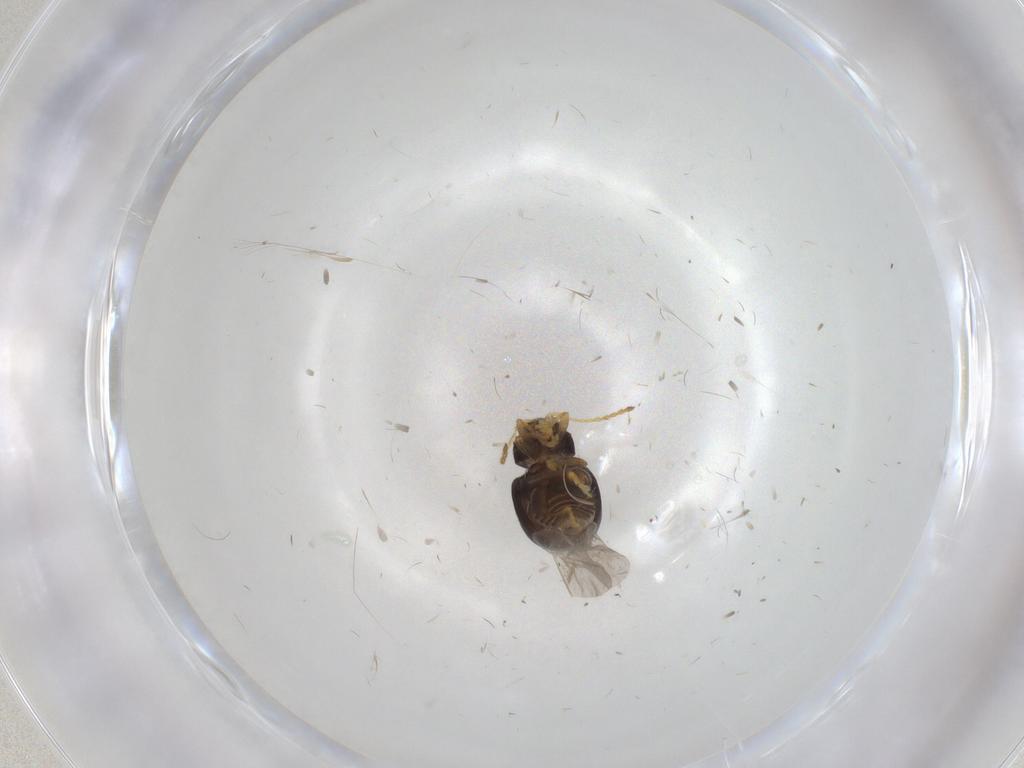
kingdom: Animalia
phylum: Arthropoda
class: Insecta
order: Coleoptera
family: Chrysomelidae
